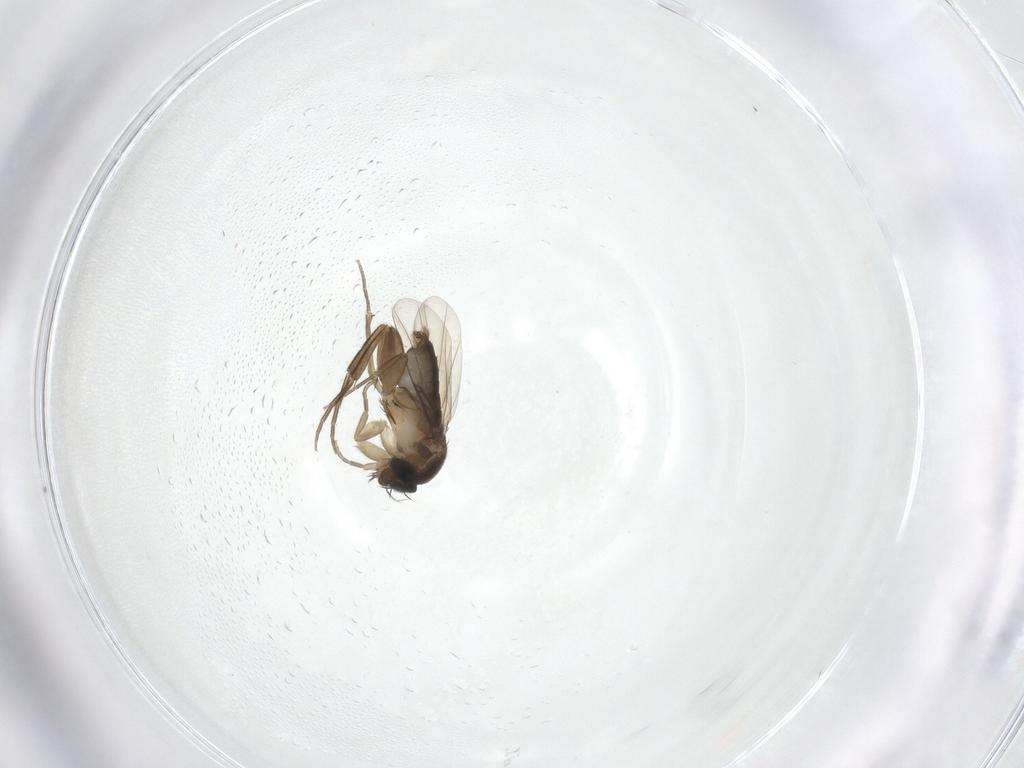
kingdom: Animalia
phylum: Arthropoda
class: Insecta
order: Diptera
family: Phoridae
